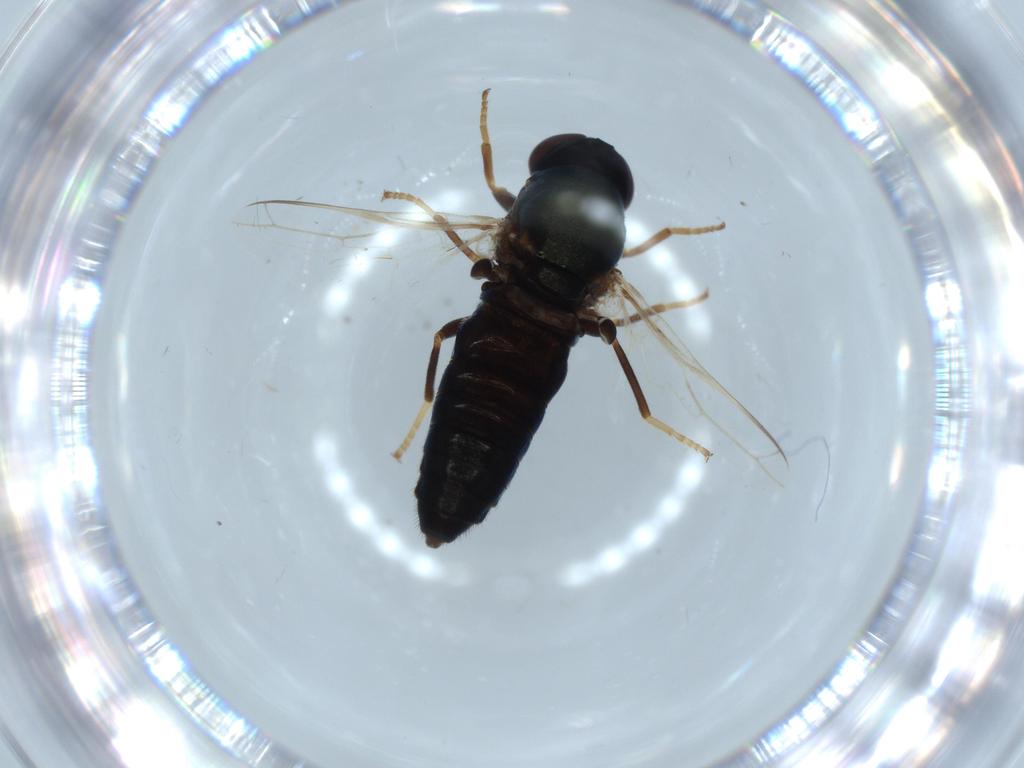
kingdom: Animalia
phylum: Arthropoda
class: Insecta
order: Diptera
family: Chironomidae
